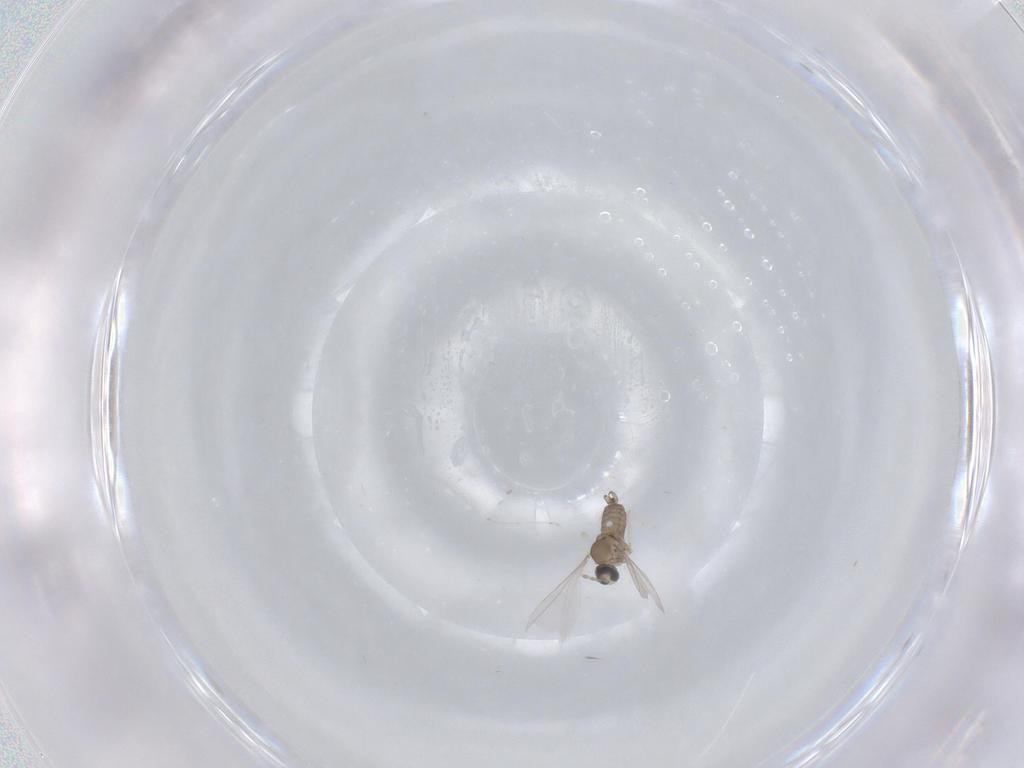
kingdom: Animalia
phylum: Arthropoda
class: Insecta
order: Diptera
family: Cecidomyiidae
